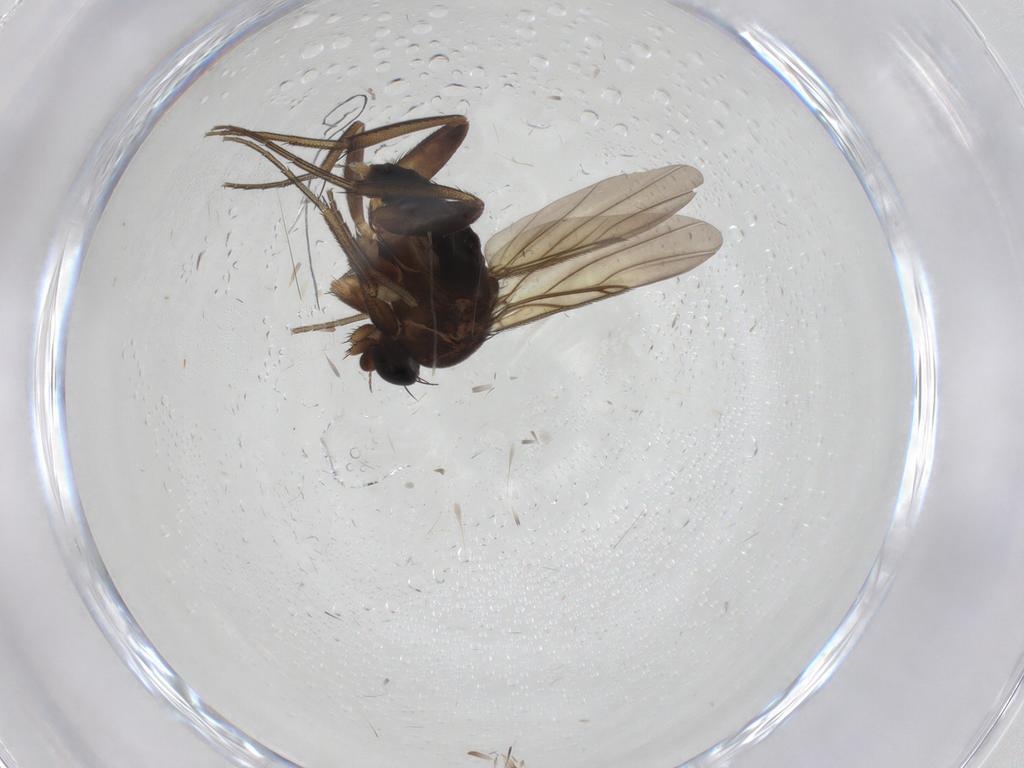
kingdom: Animalia
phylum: Arthropoda
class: Insecta
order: Diptera
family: Phoridae
